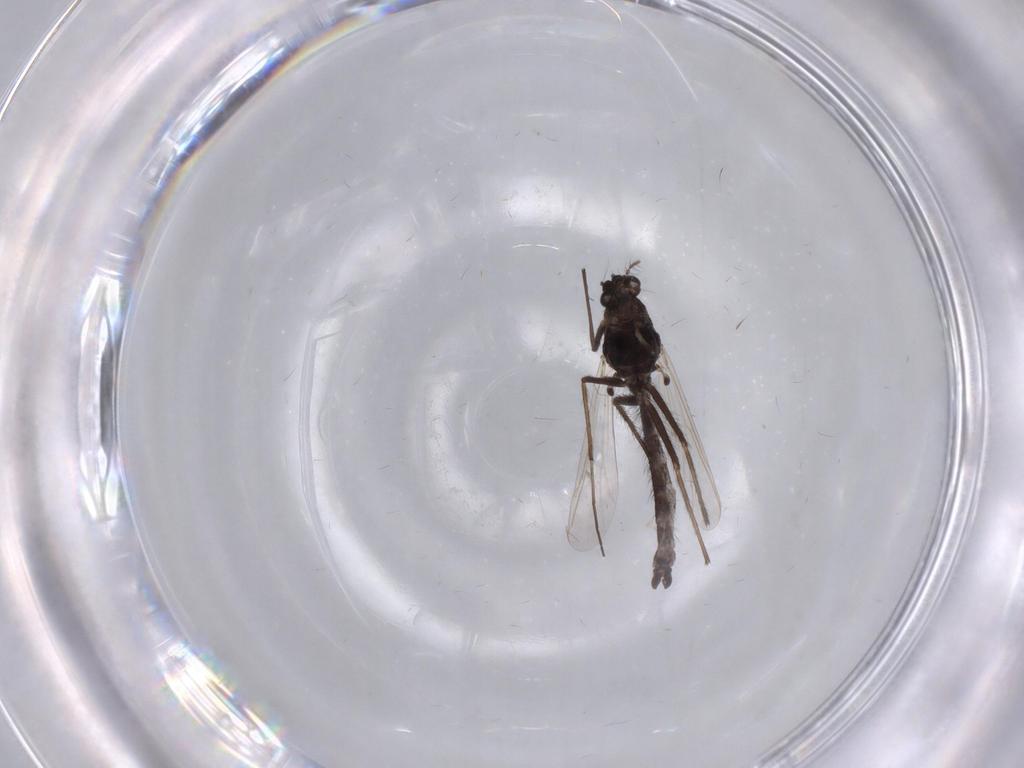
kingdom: Animalia
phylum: Arthropoda
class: Insecta
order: Diptera
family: Chironomidae
